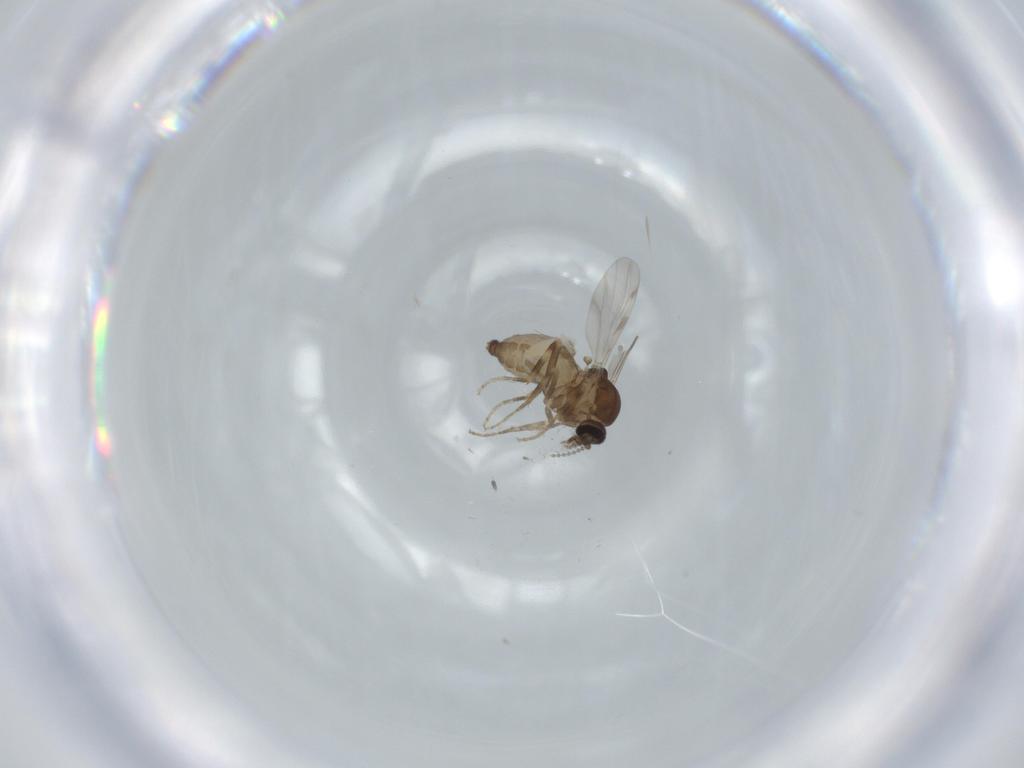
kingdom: Animalia
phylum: Arthropoda
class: Insecta
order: Diptera
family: Ceratopogonidae
